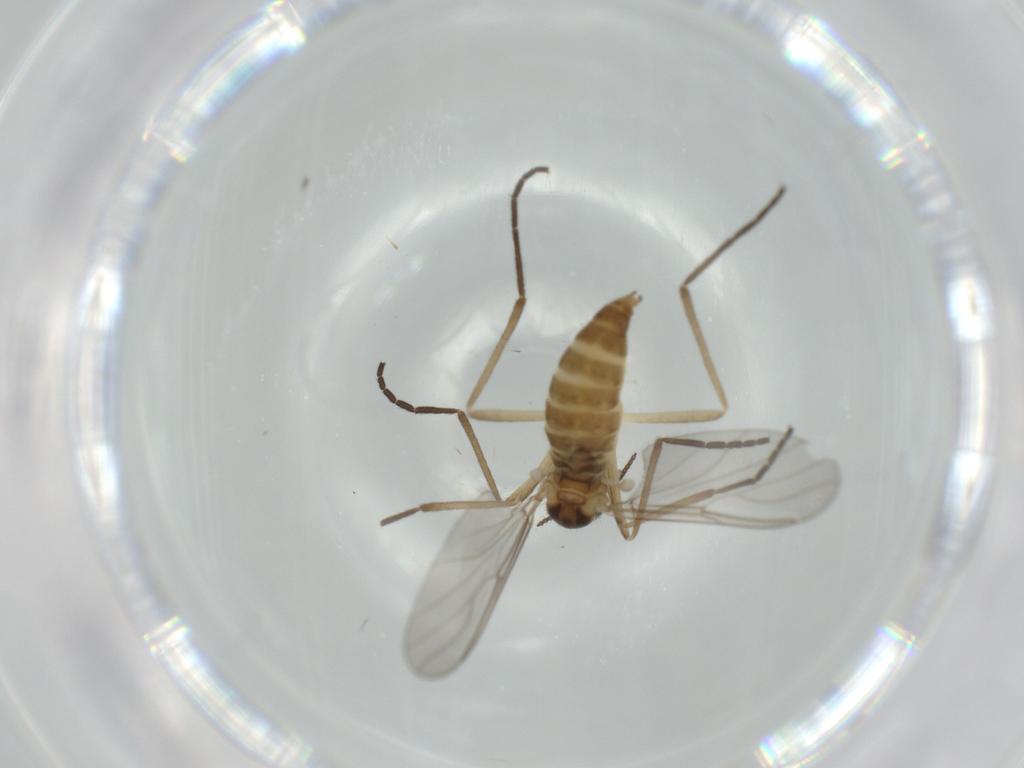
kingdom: Animalia
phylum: Arthropoda
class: Insecta
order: Diptera
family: Cecidomyiidae
